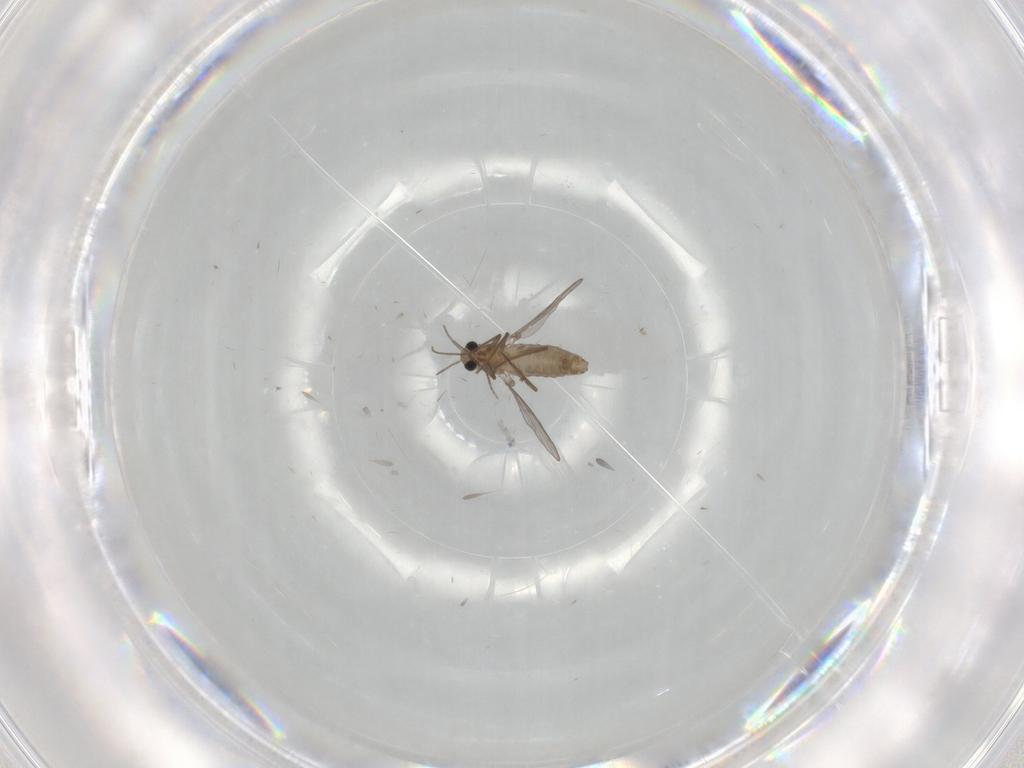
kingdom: Animalia
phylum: Arthropoda
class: Insecta
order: Diptera
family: Chironomidae
